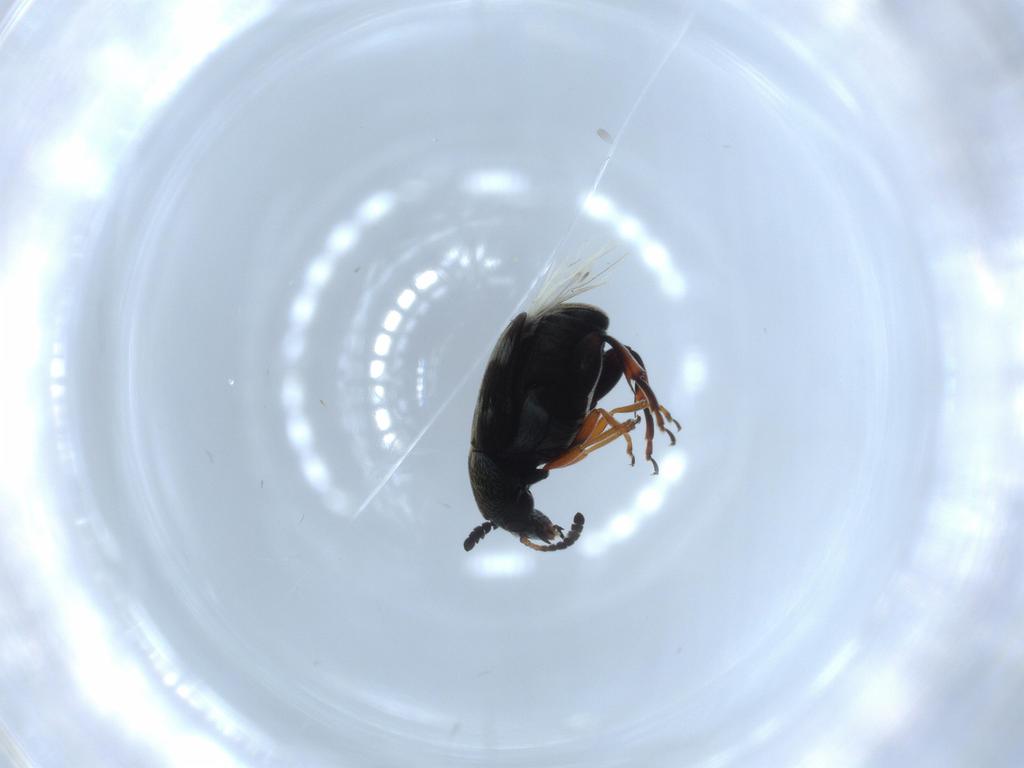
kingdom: Animalia
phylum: Arthropoda
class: Insecta
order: Coleoptera
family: Chrysomelidae
